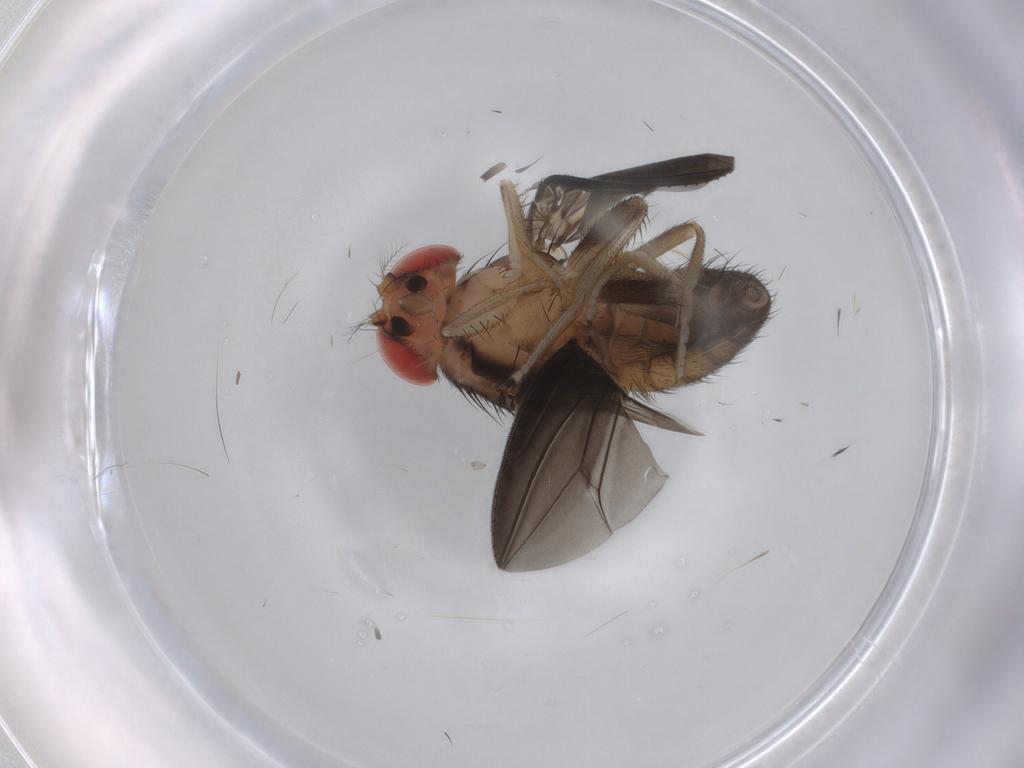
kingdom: Animalia
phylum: Arthropoda
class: Insecta
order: Diptera
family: Drosophilidae
